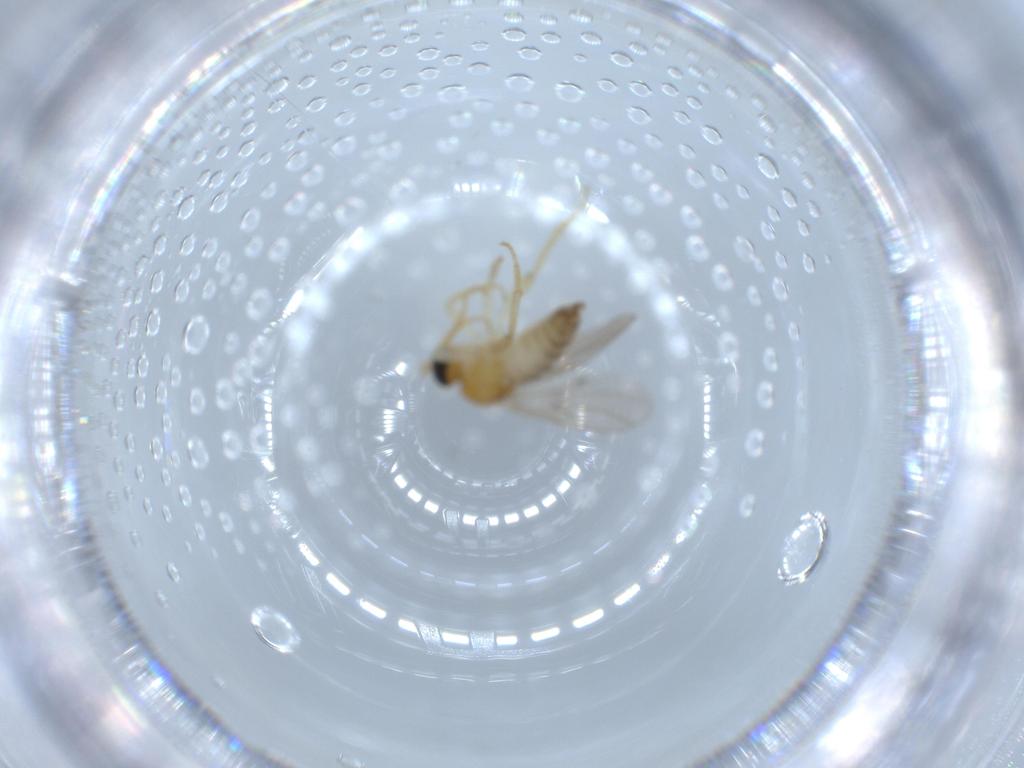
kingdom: Animalia
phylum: Arthropoda
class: Insecta
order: Diptera
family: Hybotidae
